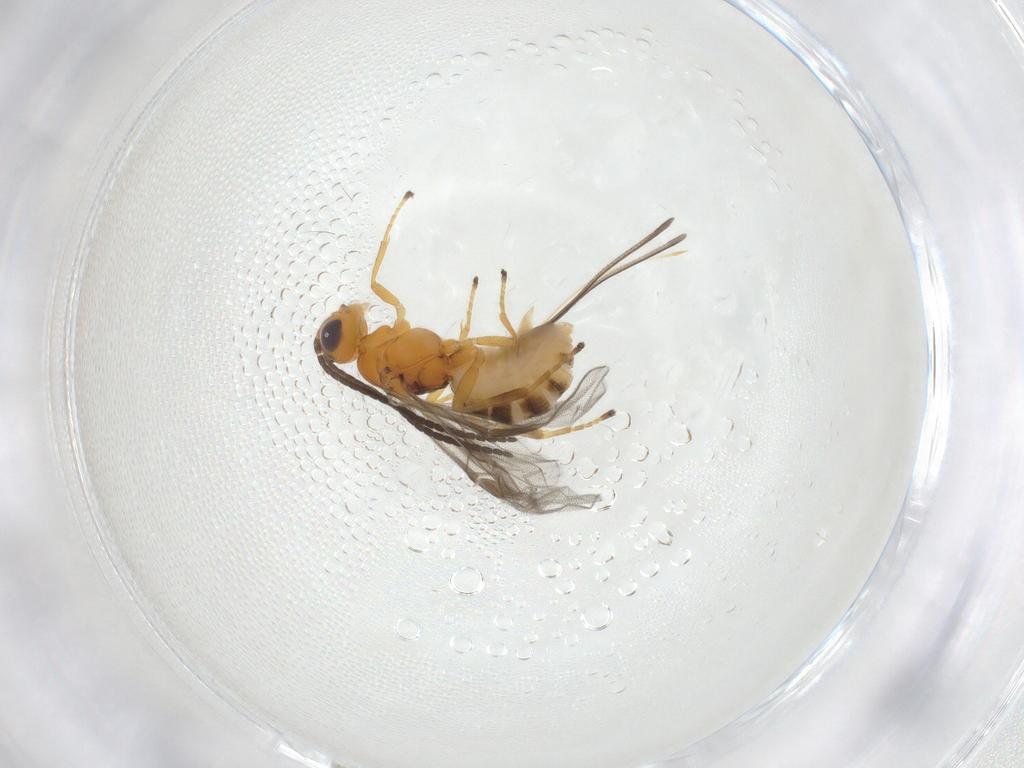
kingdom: Animalia
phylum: Arthropoda
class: Insecta
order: Hymenoptera
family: Braconidae
